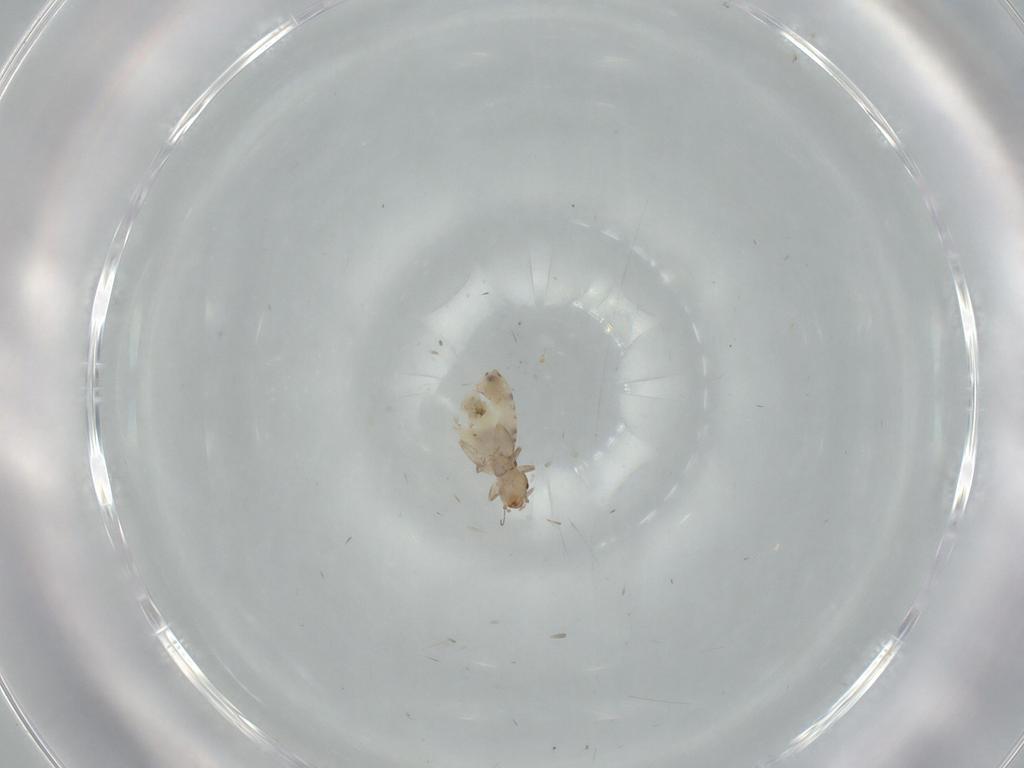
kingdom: Animalia
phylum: Arthropoda
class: Insecta
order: Psocodea
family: Liposcelididae
